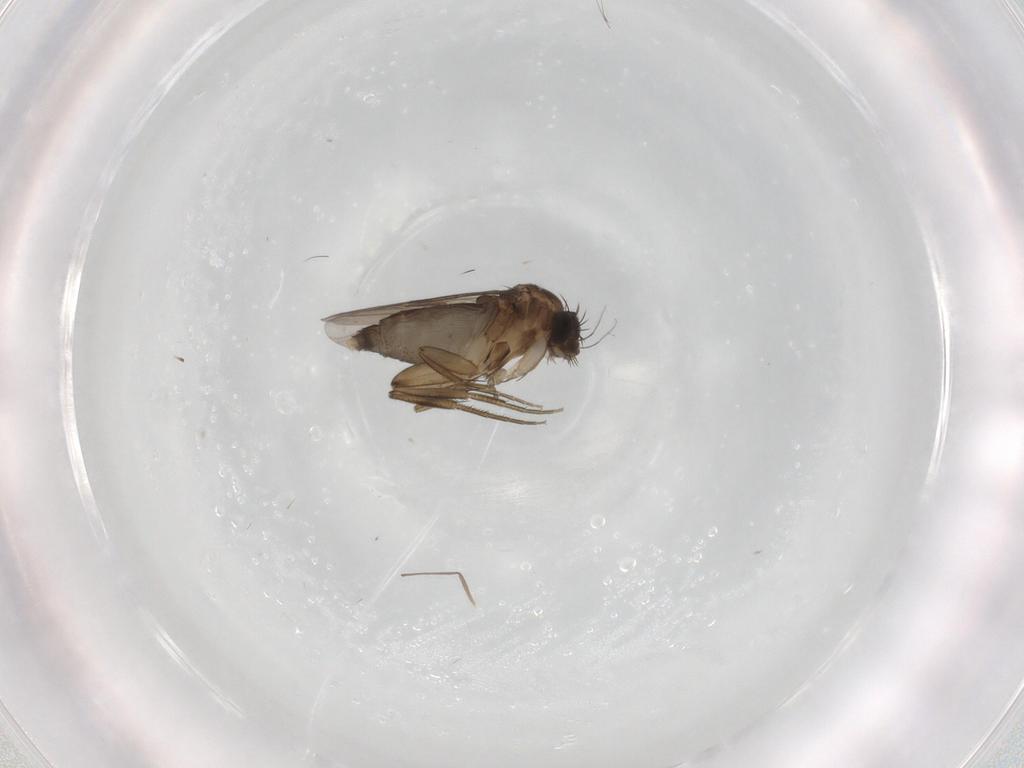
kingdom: Animalia
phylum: Arthropoda
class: Insecta
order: Diptera
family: Phoridae
